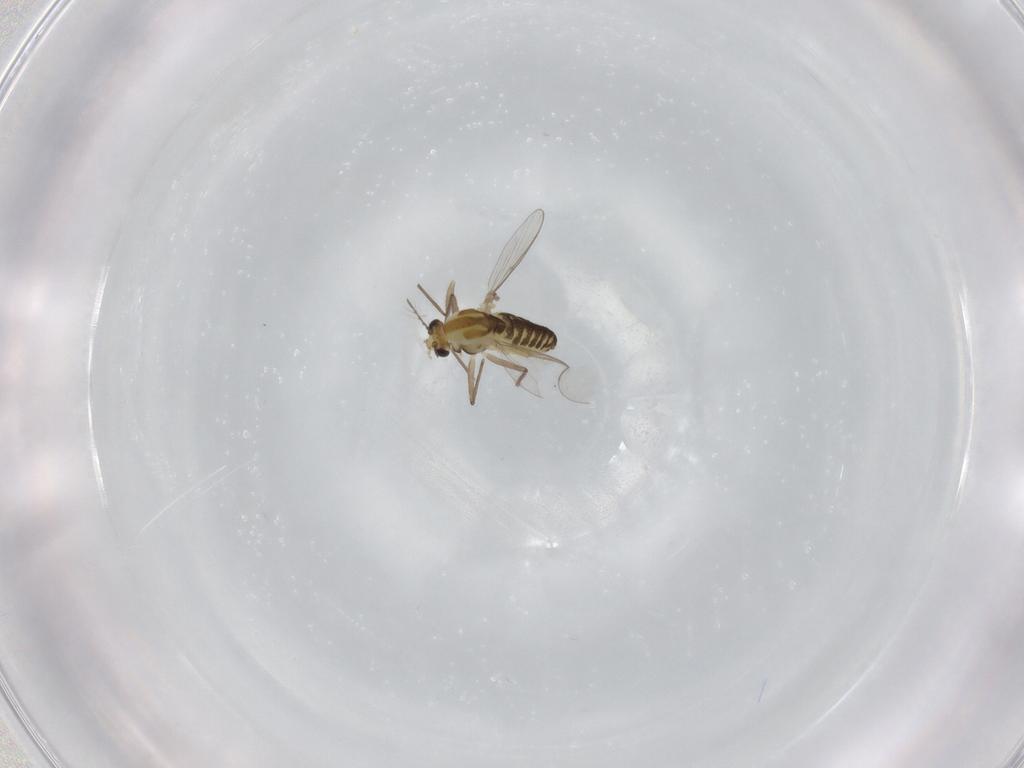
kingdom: Animalia
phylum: Arthropoda
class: Insecta
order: Diptera
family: Chironomidae
